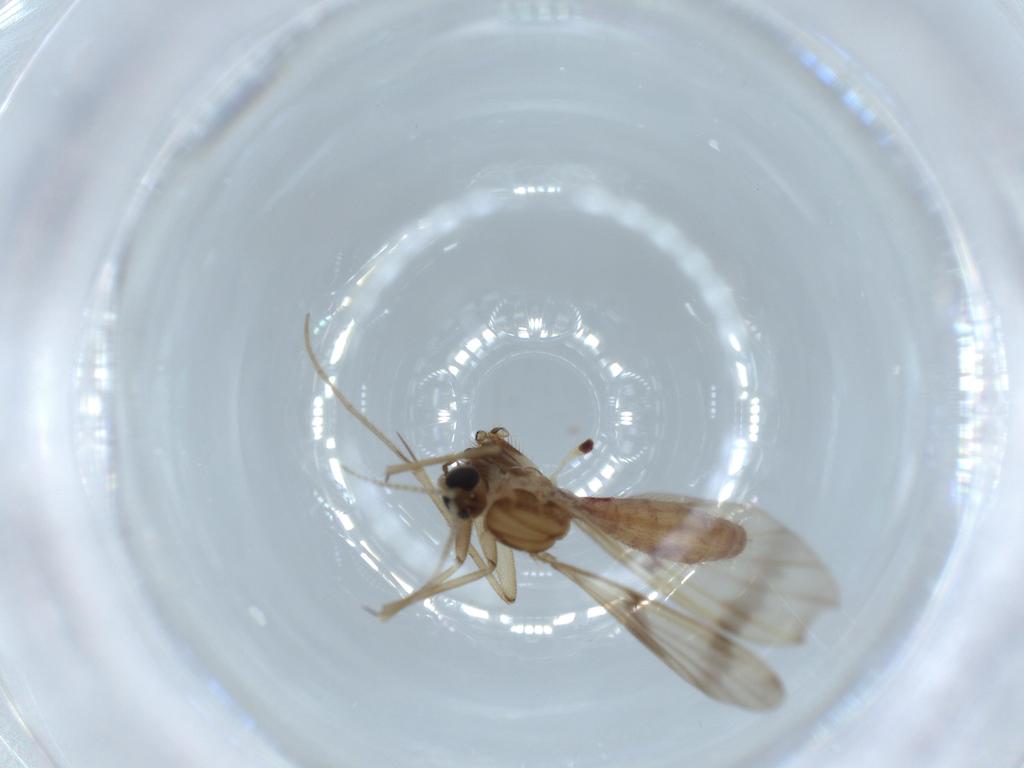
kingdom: Animalia
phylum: Arthropoda
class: Insecta
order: Diptera
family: Mycetophilidae
